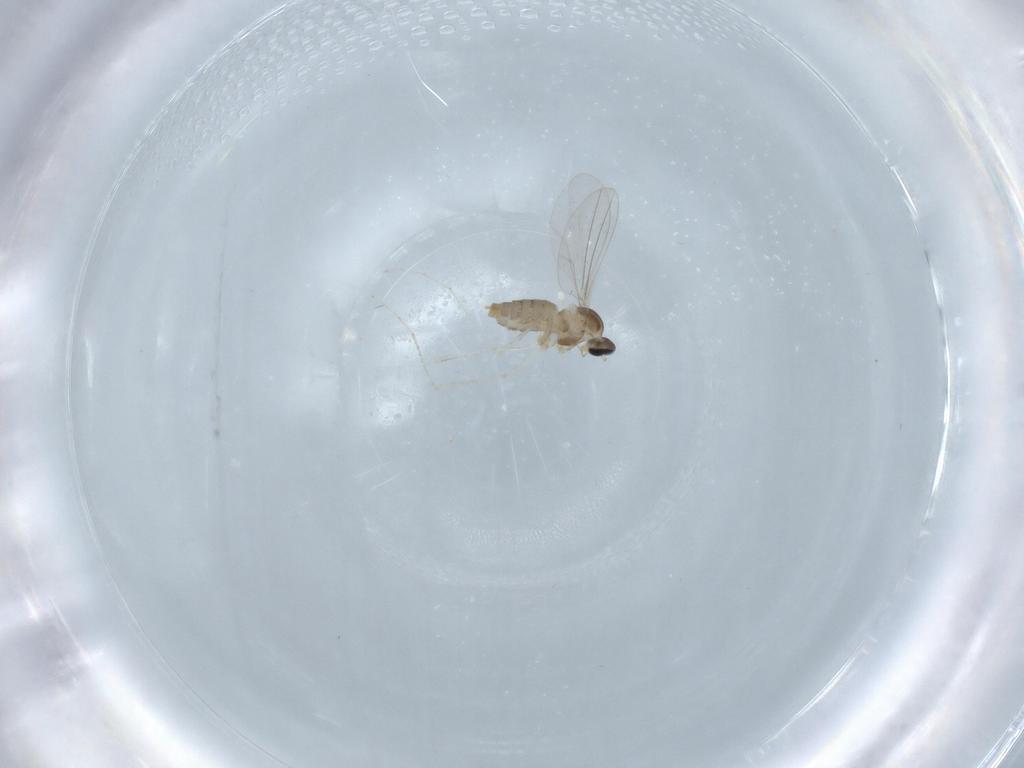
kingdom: Animalia
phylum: Arthropoda
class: Insecta
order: Diptera
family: Cecidomyiidae
